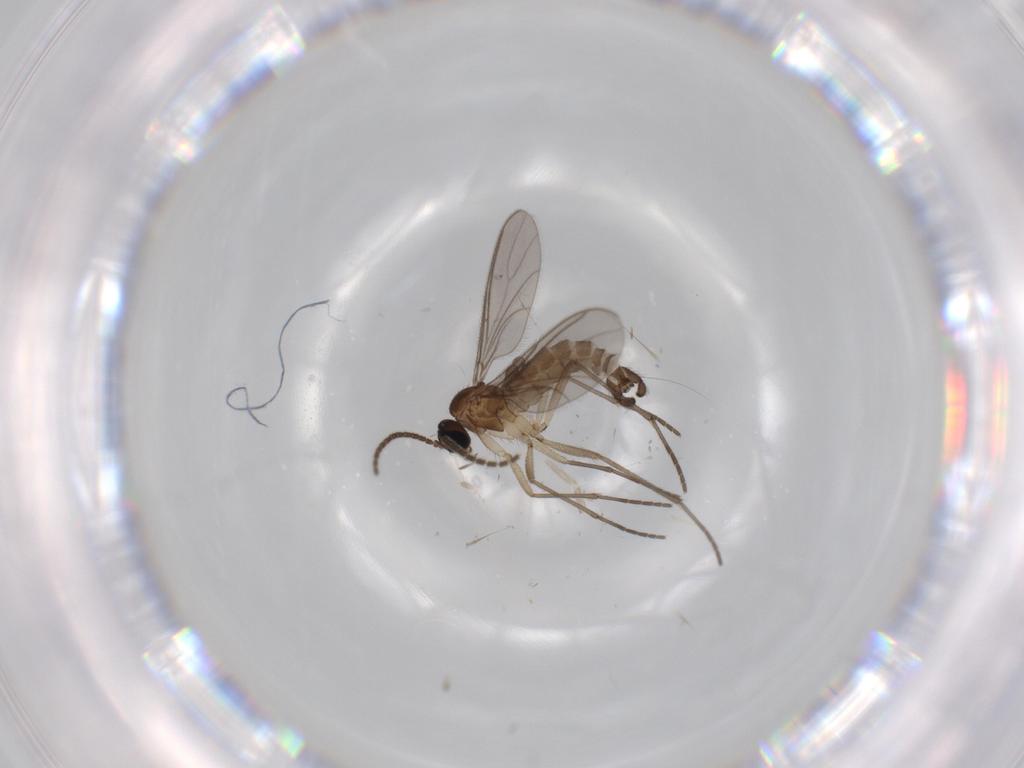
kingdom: Animalia
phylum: Arthropoda
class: Insecta
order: Diptera
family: Sciaridae
